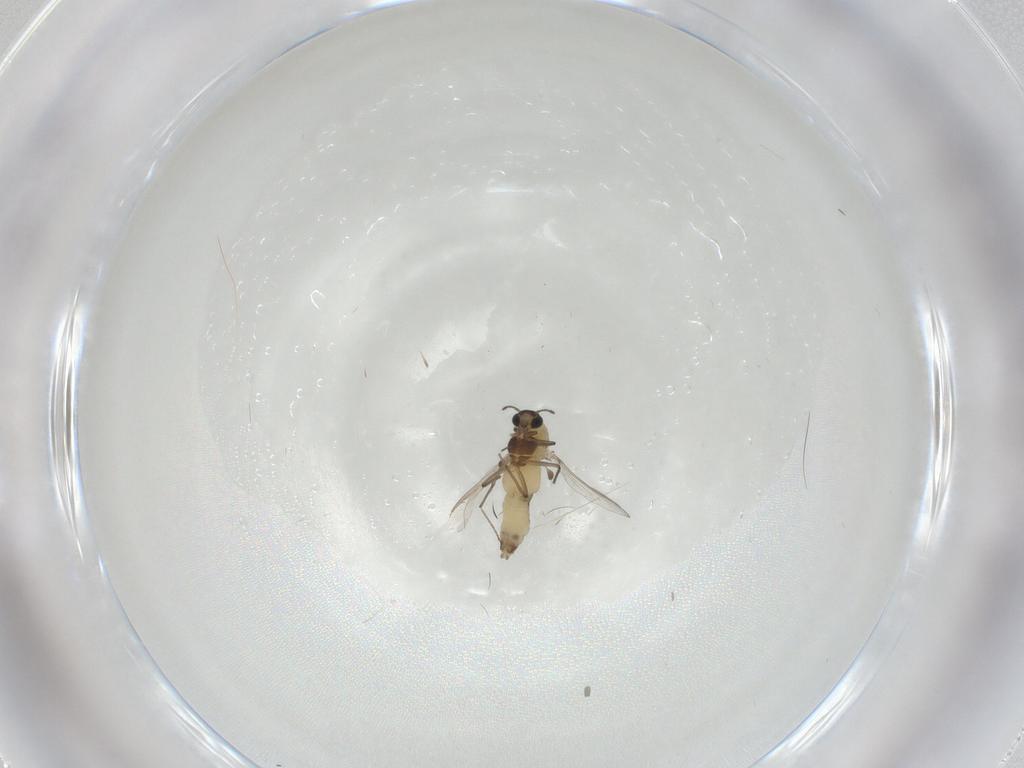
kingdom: Animalia
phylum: Arthropoda
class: Insecta
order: Diptera
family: Chironomidae
